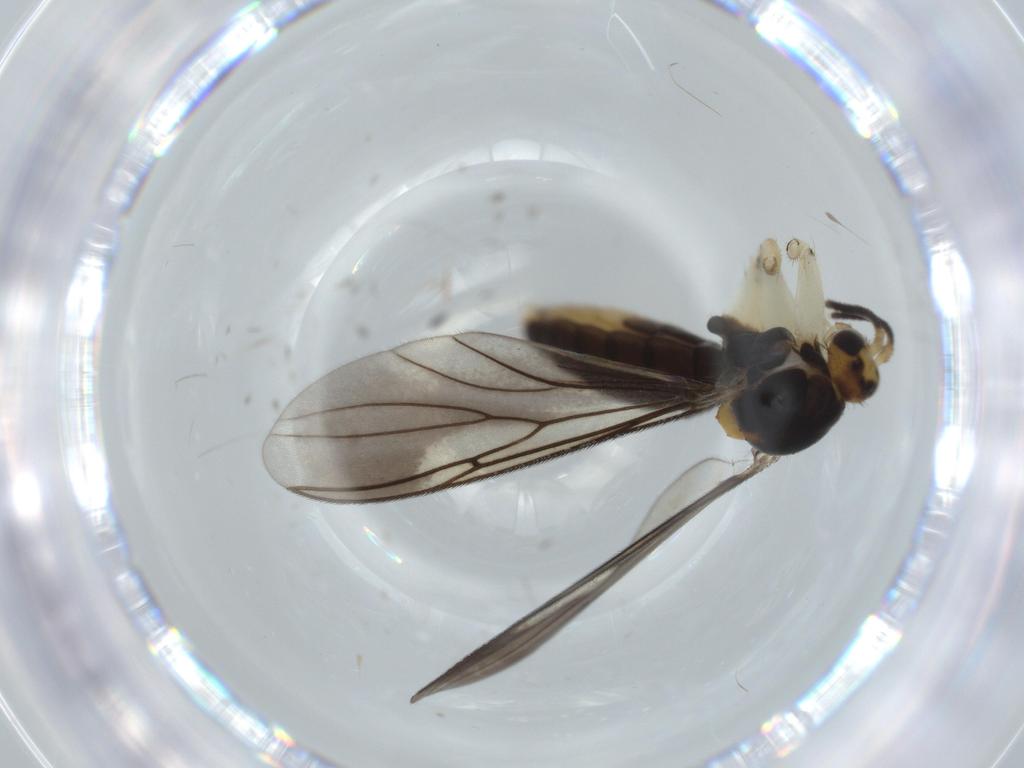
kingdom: Animalia
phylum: Arthropoda
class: Insecta
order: Diptera
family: Mycetophilidae
